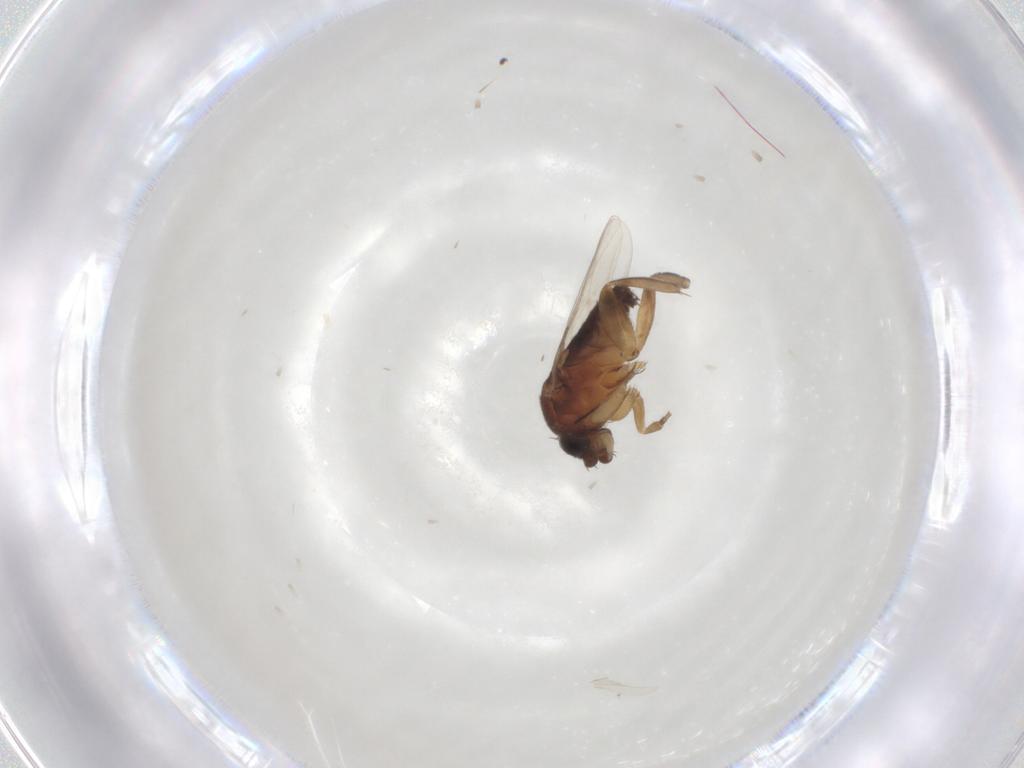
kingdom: Animalia
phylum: Arthropoda
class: Insecta
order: Diptera
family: Phoridae
